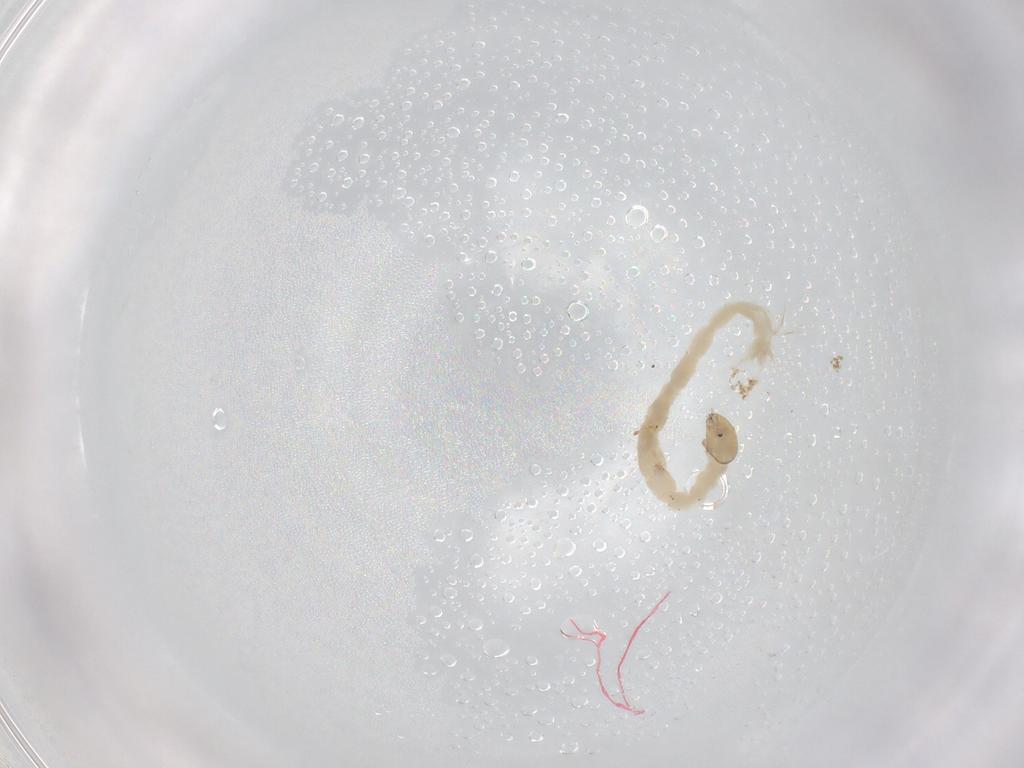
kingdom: Animalia
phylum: Arthropoda
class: Insecta
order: Diptera
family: Chironomidae
